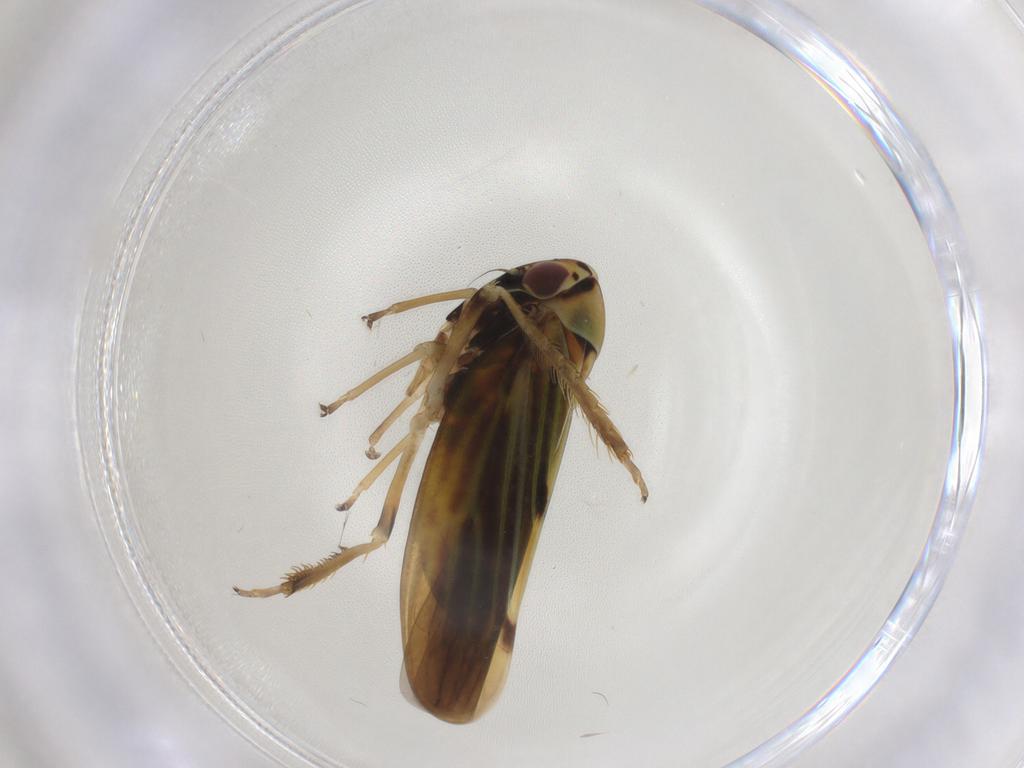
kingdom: Animalia
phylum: Arthropoda
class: Insecta
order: Hemiptera
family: Cicadellidae
